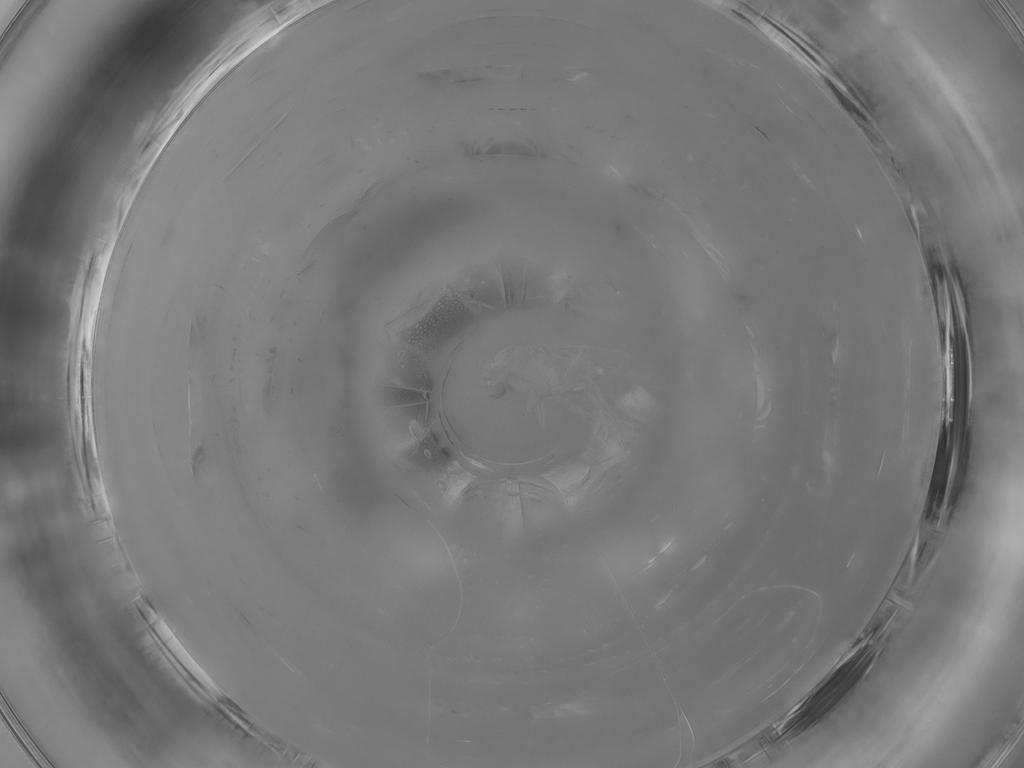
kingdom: Animalia
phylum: Arthropoda
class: Insecta
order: Diptera
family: Phoridae
